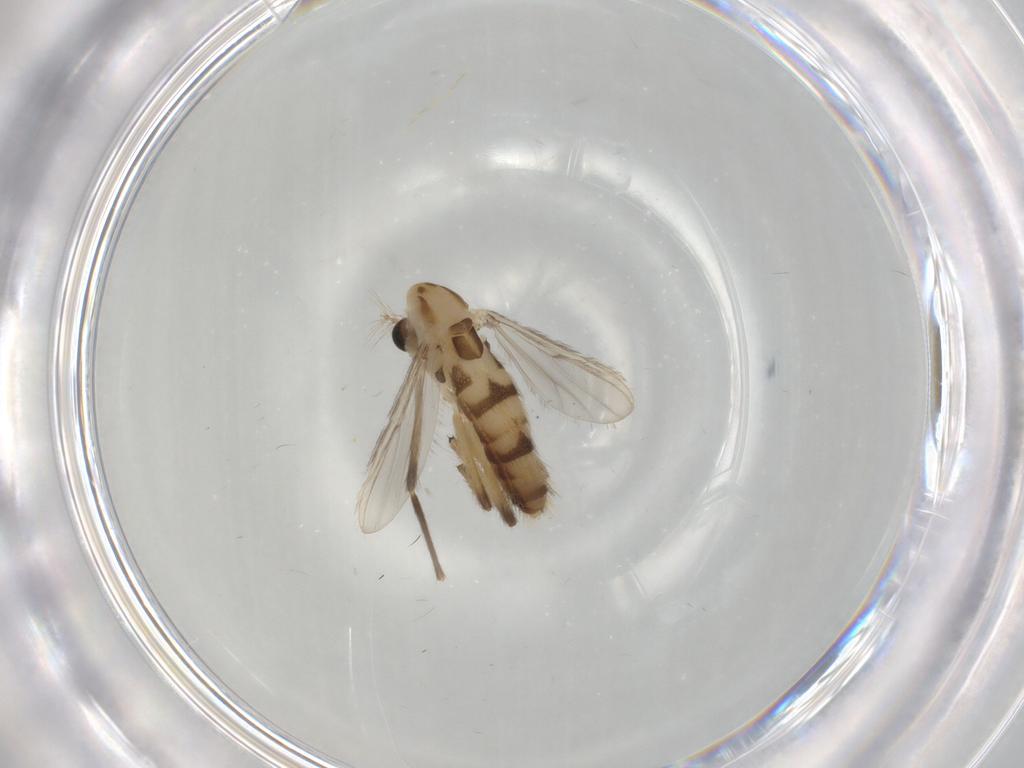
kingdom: Animalia
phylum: Arthropoda
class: Insecta
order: Diptera
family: Chironomidae
